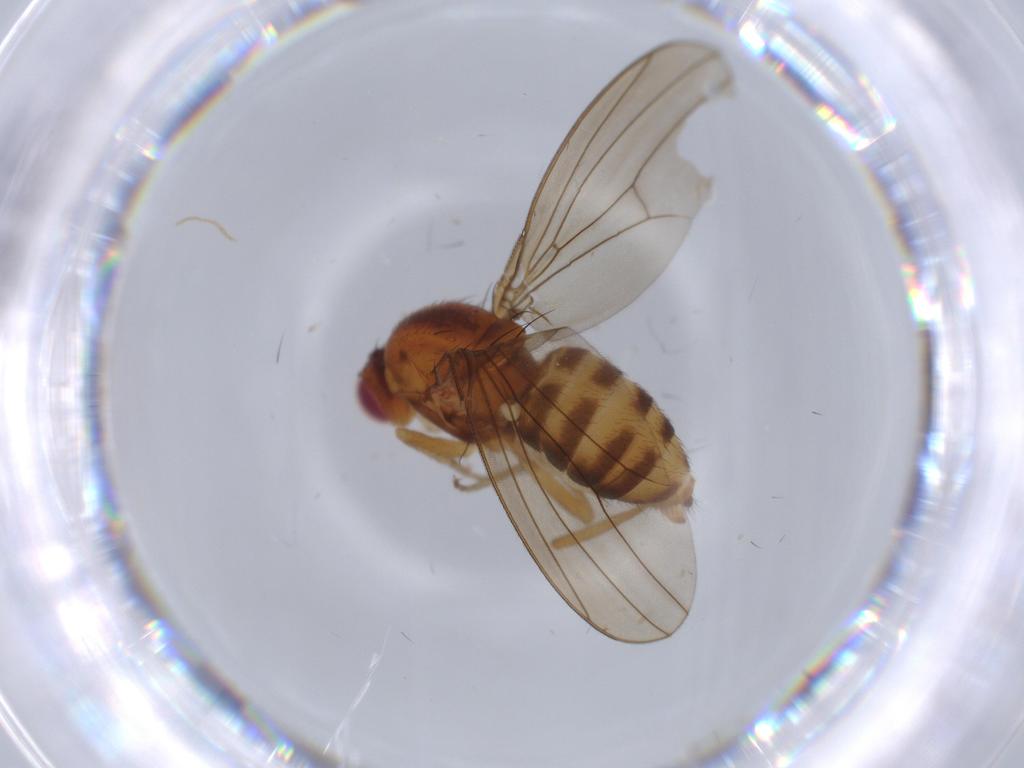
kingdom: Animalia
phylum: Arthropoda
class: Insecta
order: Diptera
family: Drosophilidae
